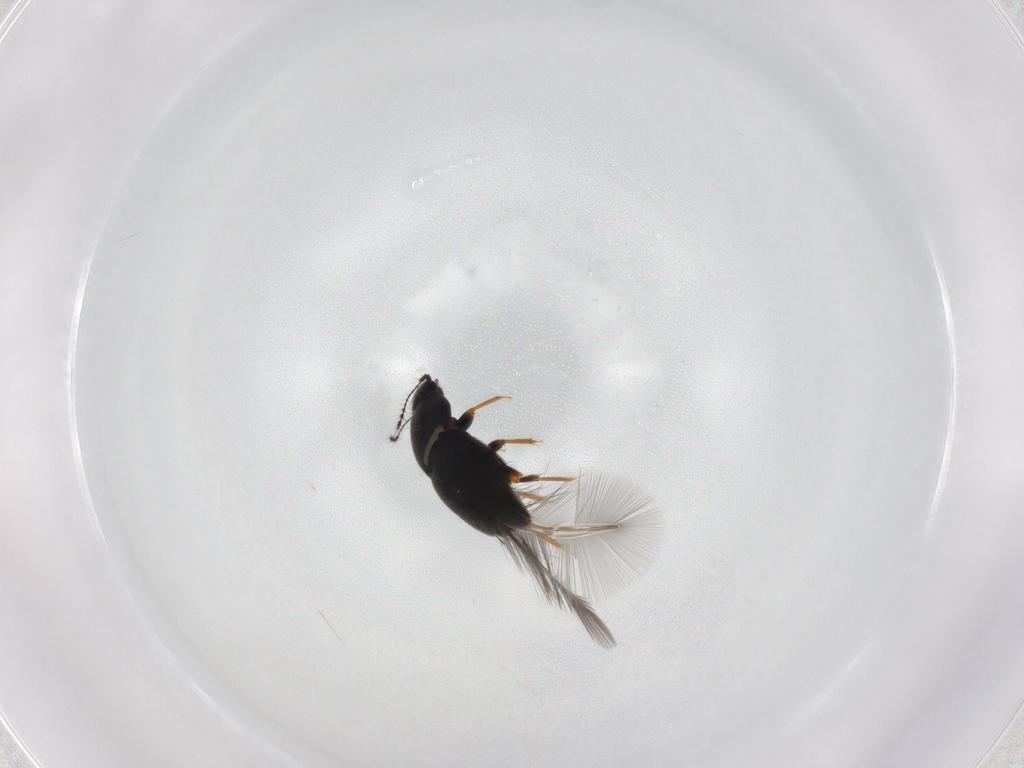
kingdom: Animalia
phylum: Arthropoda
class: Insecta
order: Coleoptera
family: Ptiliidae
